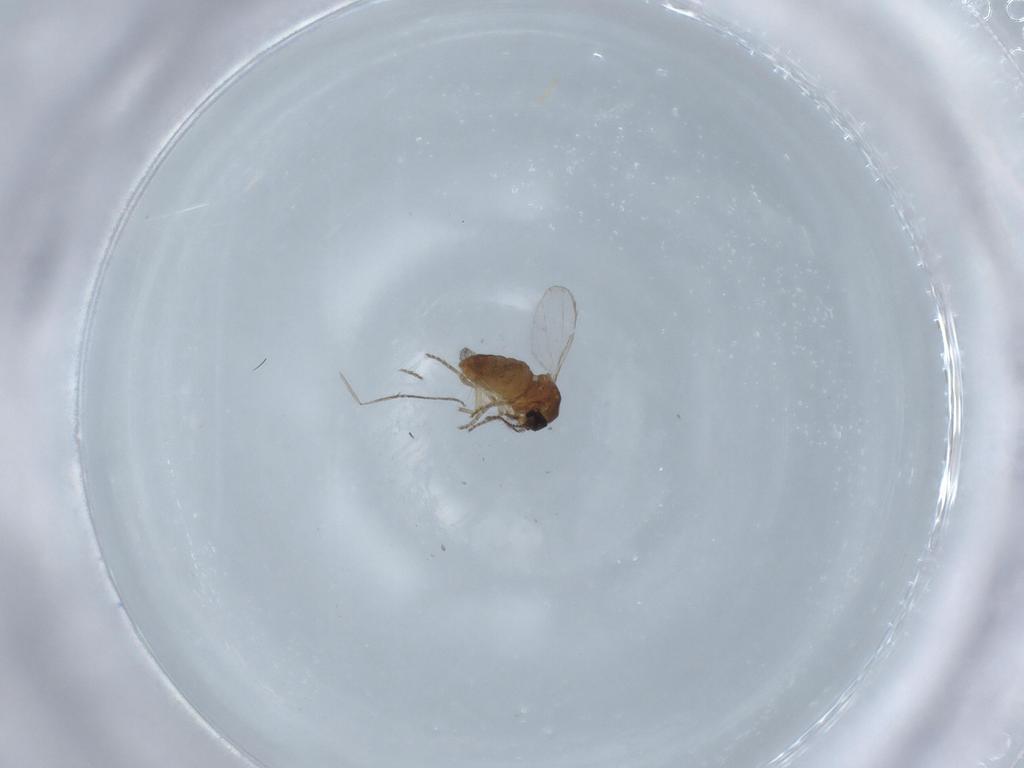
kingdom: Animalia
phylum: Arthropoda
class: Insecta
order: Diptera
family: Ceratopogonidae
